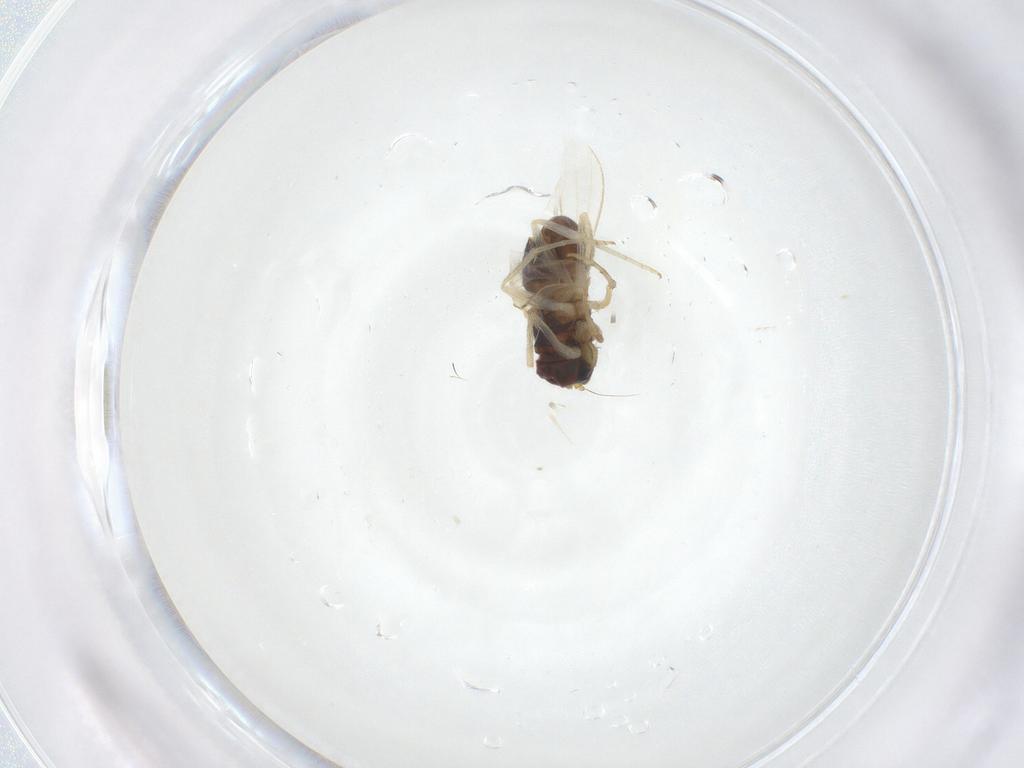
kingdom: Animalia
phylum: Arthropoda
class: Insecta
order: Diptera
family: Dolichopodidae
